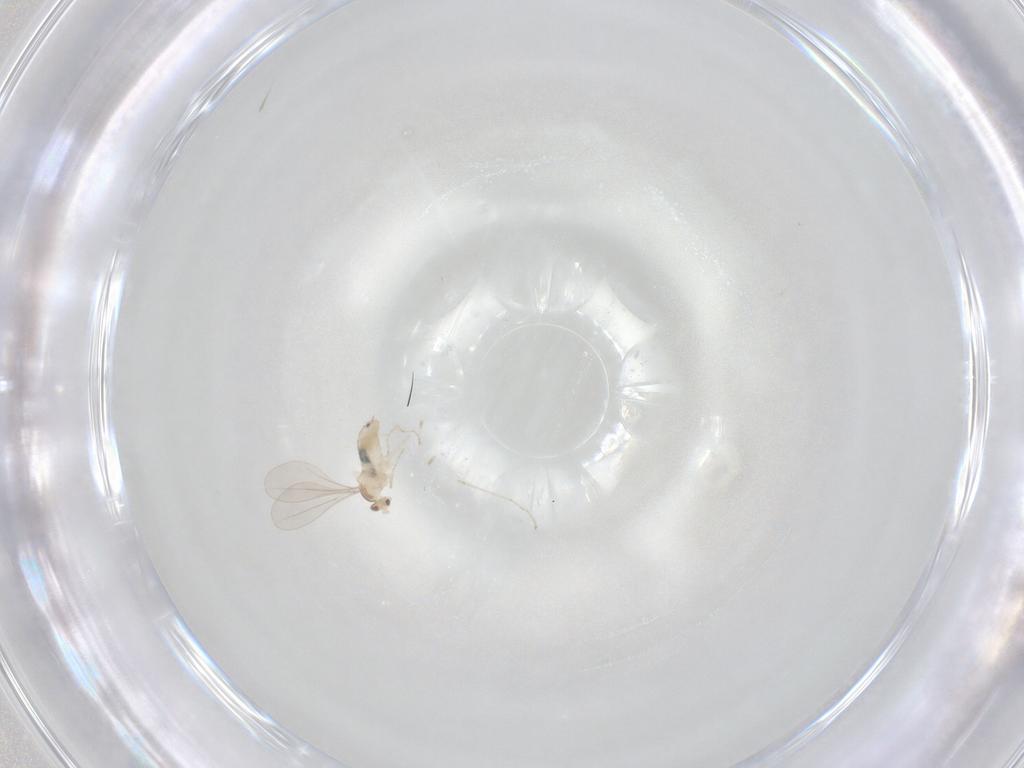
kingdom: Animalia
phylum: Arthropoda
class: Insecta
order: Diptera
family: Cecidomyiidae
